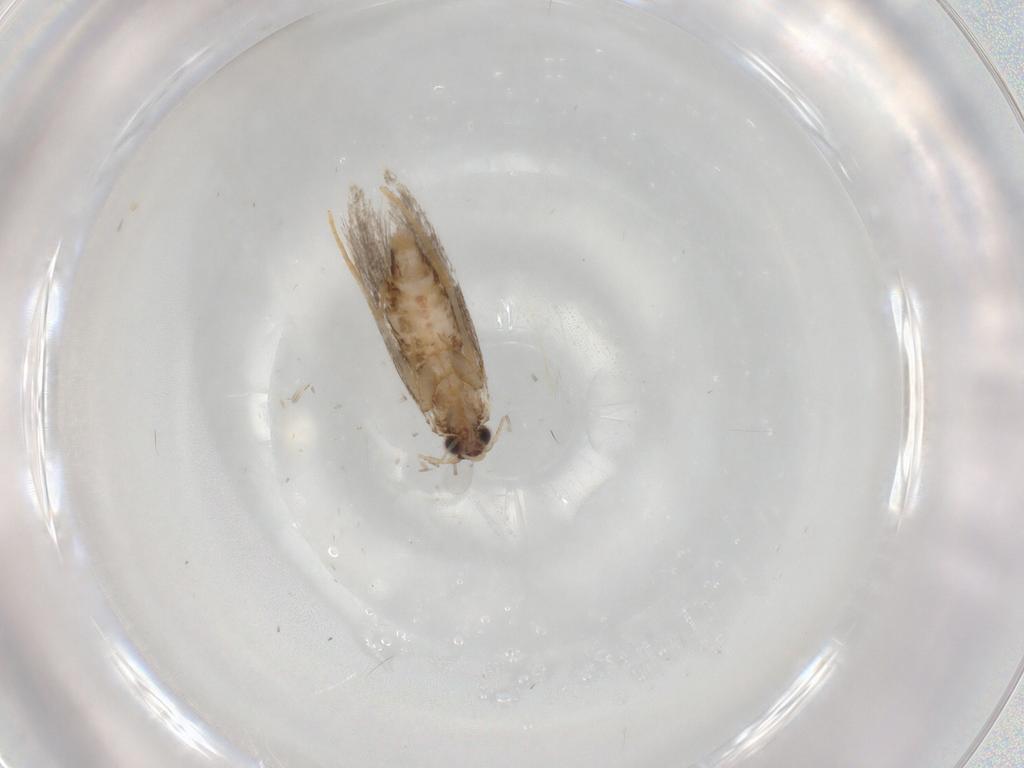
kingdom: Animalia
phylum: Arthropoda
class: Insecta
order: Lepidoptera
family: Tineidae
